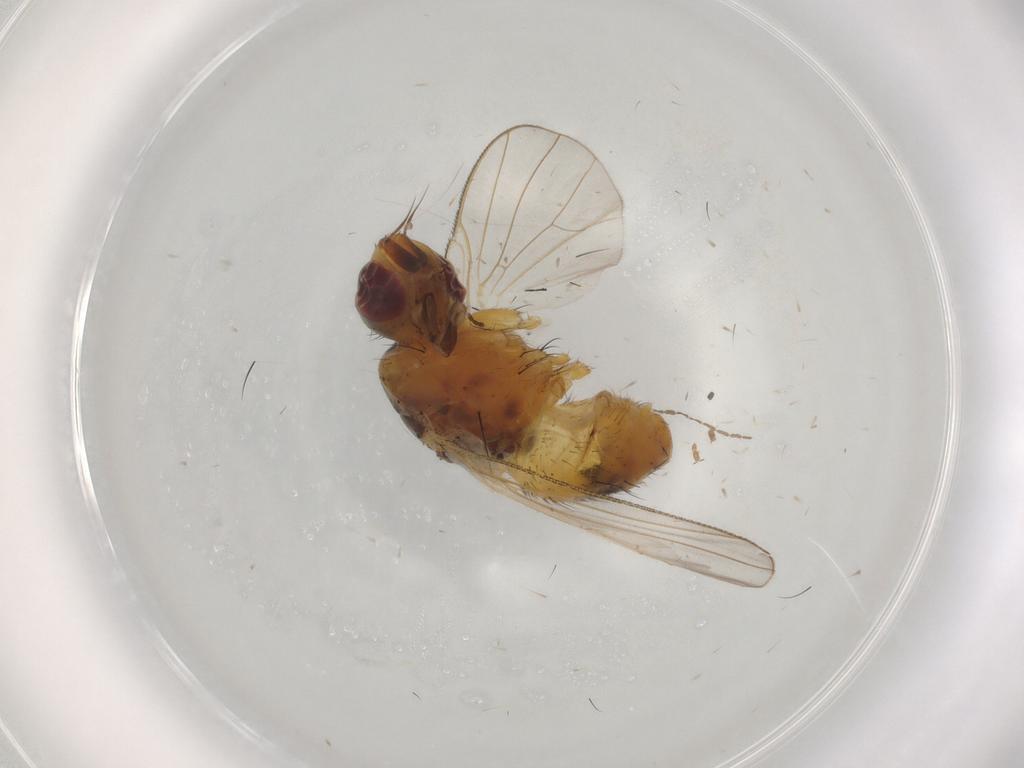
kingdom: Animalia
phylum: Arthropoda
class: Insecta
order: Diptera
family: Muscidae
